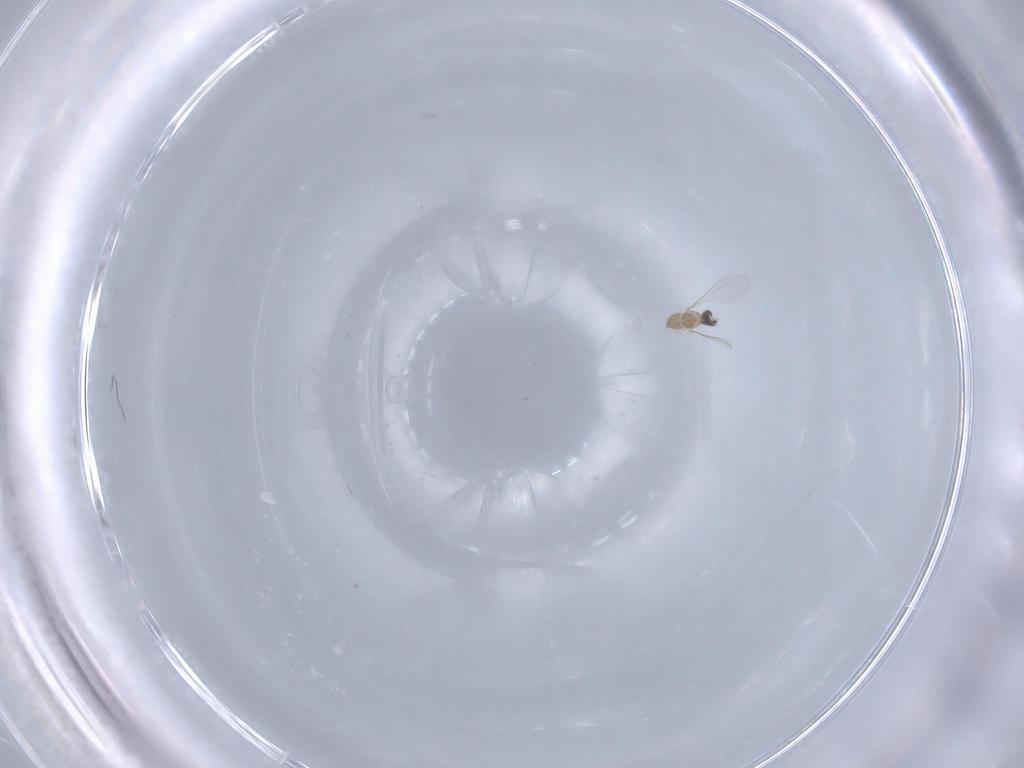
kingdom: Animalia
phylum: Arthropoda
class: Insecta
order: Diptera
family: Cecidomyiidae
